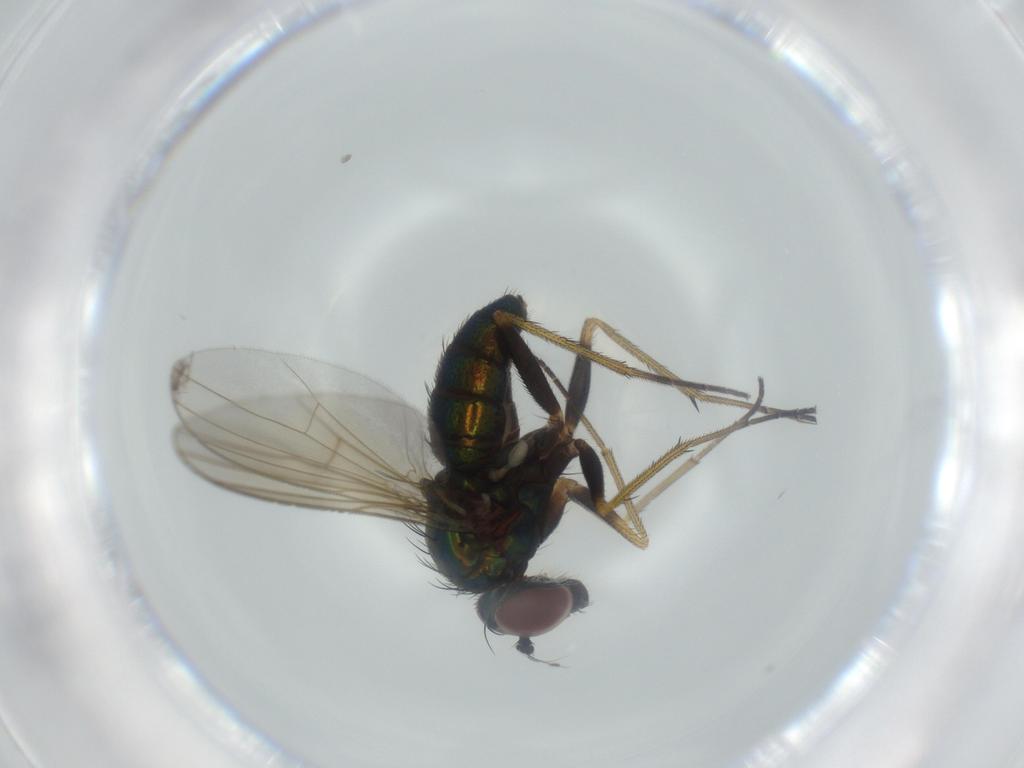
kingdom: Animalia
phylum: Arthropoda
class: Insecta
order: Diptera
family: Dolichopodidae
